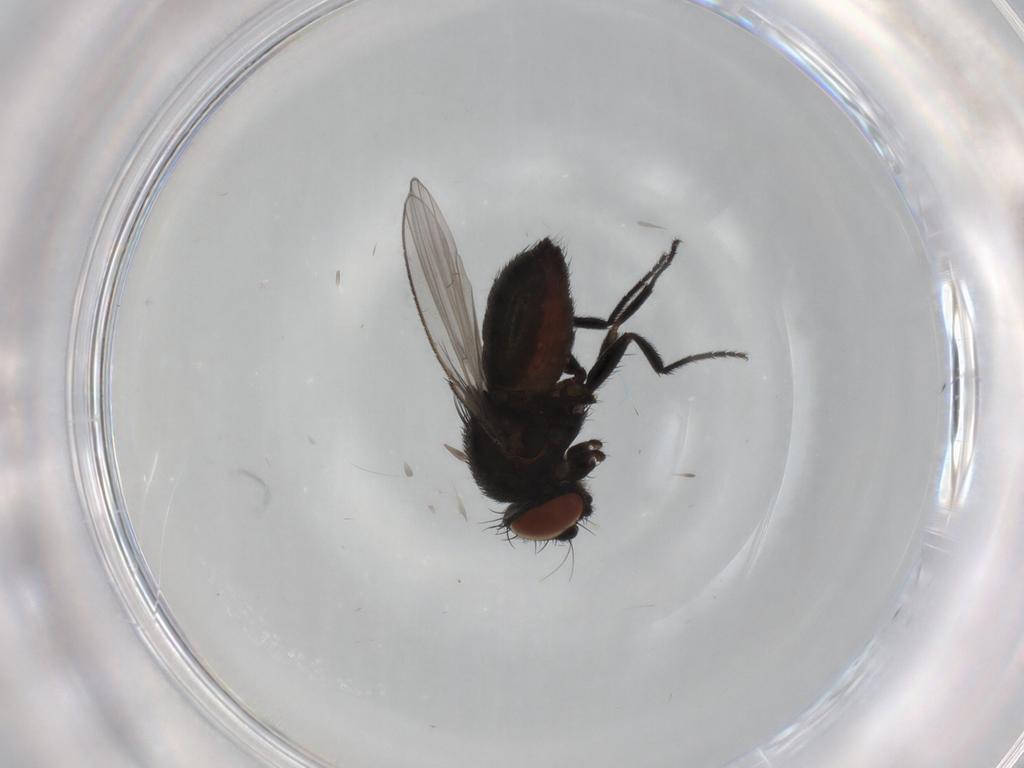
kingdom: Animalia
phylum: Arthropoda
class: Insecta
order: Diptera
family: Milichiidae
